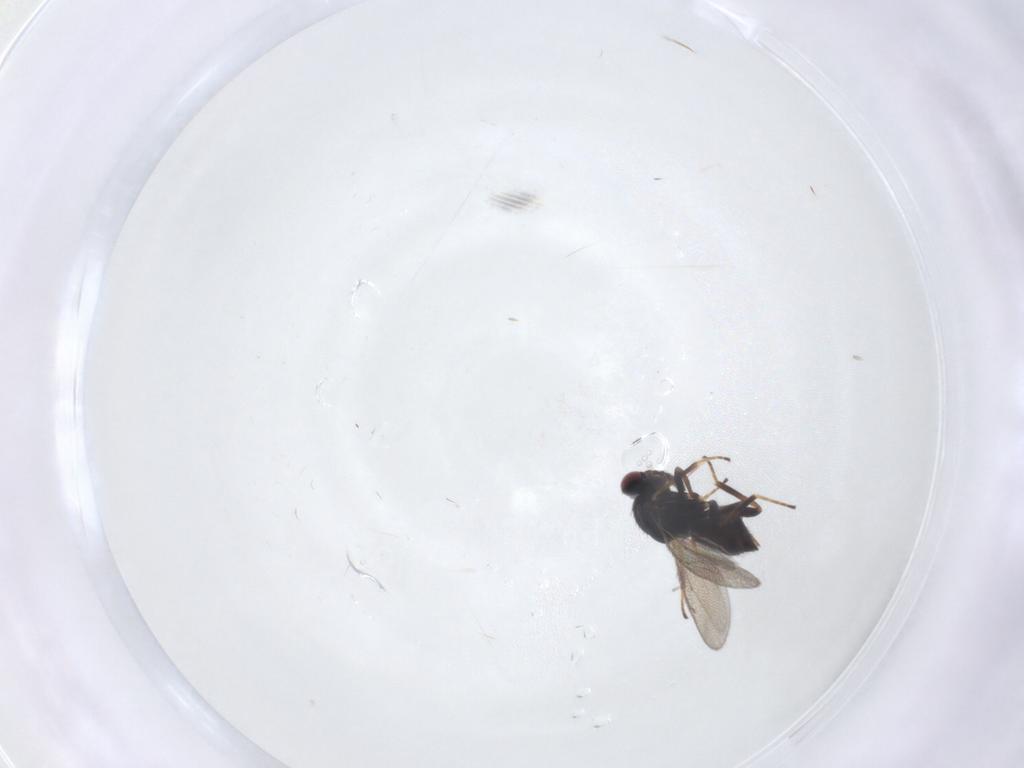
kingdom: Animalia
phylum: Arthropoda
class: Insecta
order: Hymenoptera
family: Eulophidae
